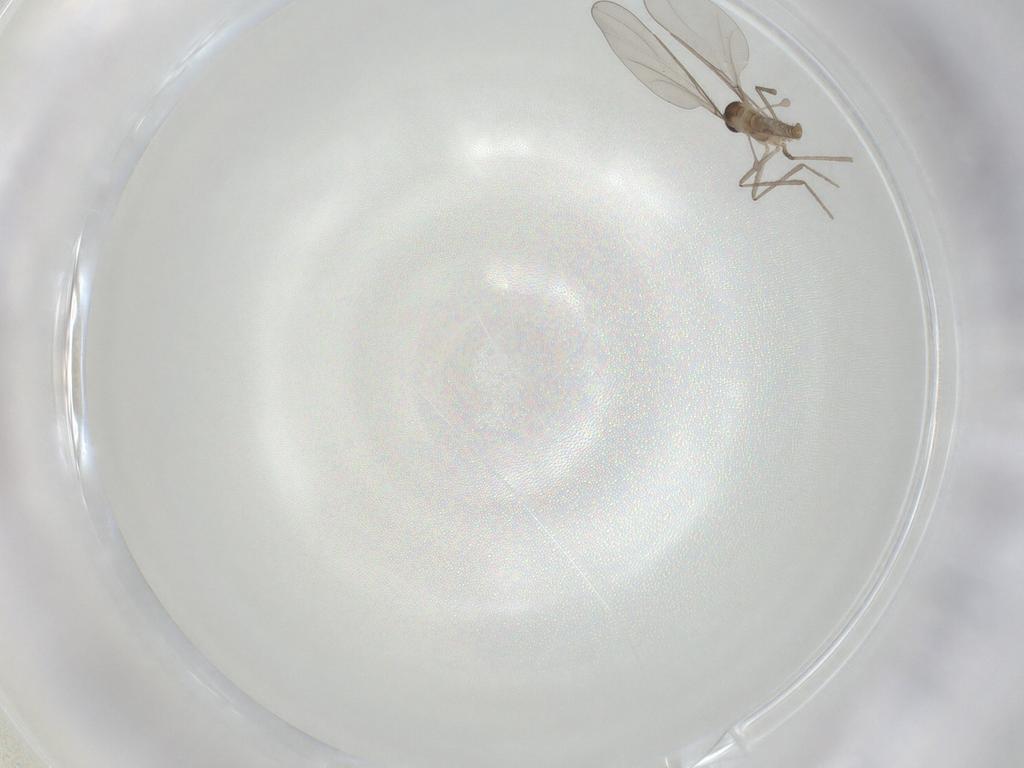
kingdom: Animalia
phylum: Arthropoda
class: Insecta
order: Diptera
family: Cecidomyiidae
